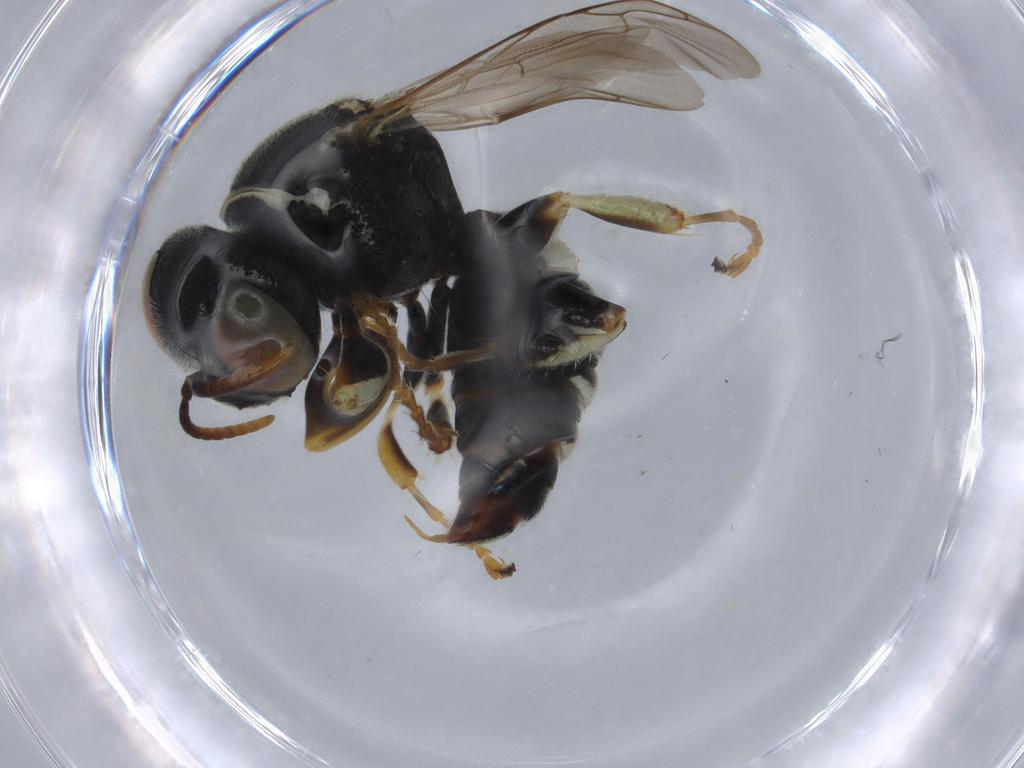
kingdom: Animalia
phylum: Arthropoda
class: Insecta
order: Hymenoptera
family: Crabronidae
